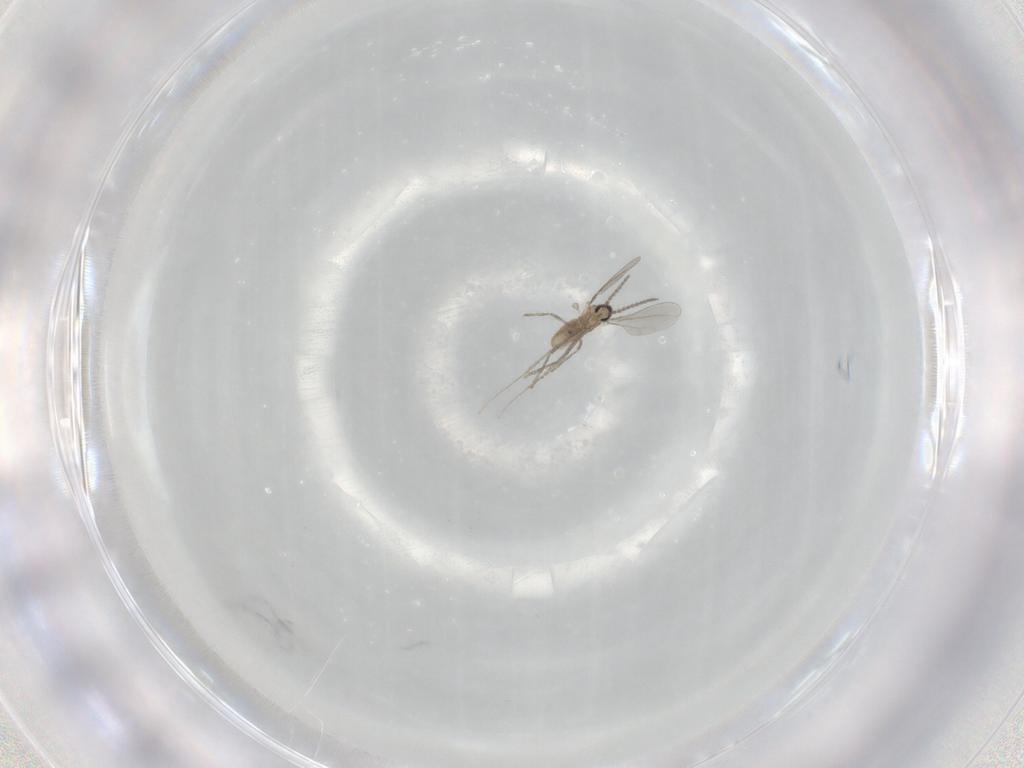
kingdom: Animalia
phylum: Arthropoda
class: Insecta
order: Diptera
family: Cecidomyiidae
